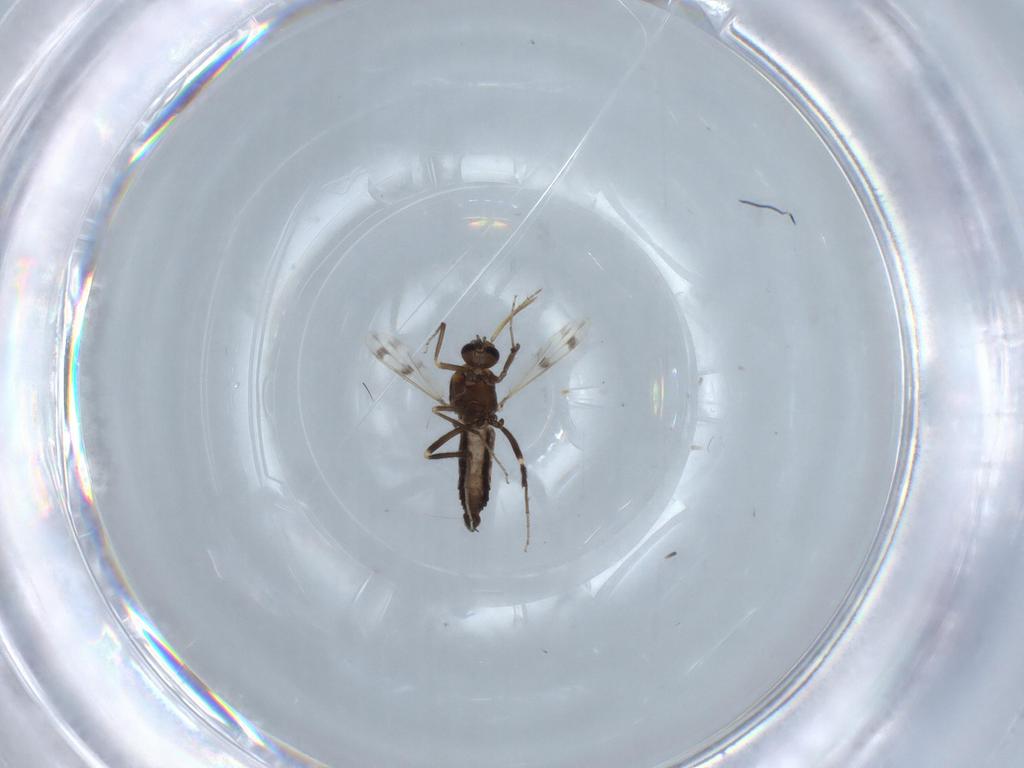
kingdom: Animalia
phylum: Arthropoda
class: Insecta
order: Diptera
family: Ceratopogonidae
